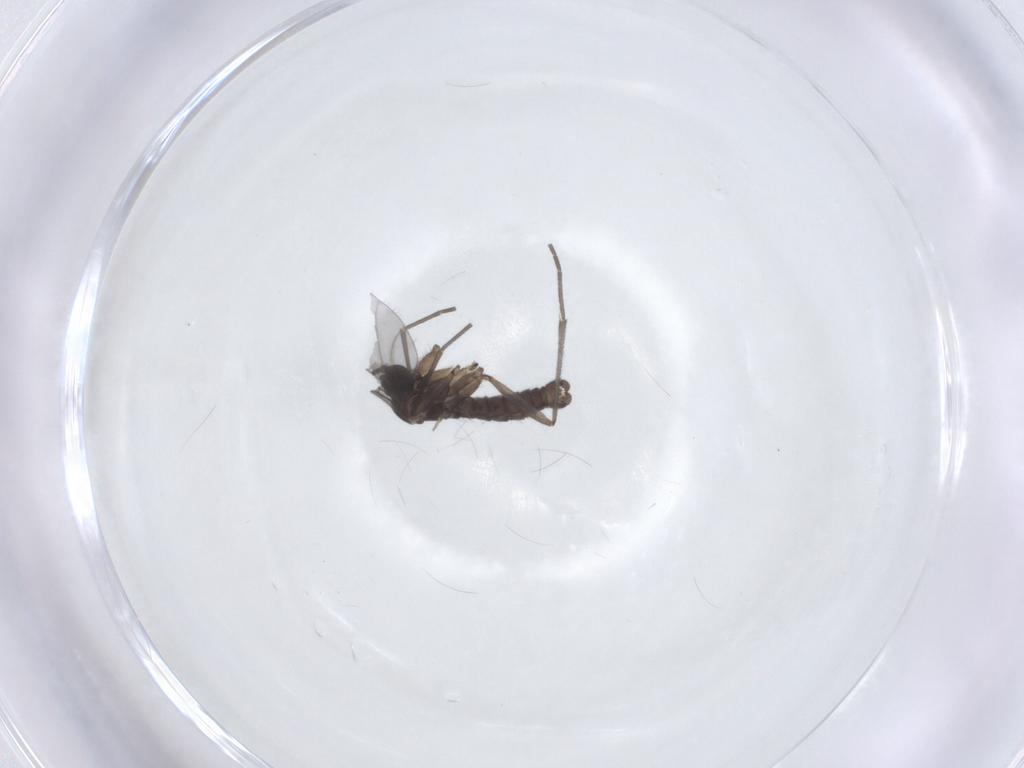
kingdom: Animalia
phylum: Arthropoda
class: Insecta
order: Diptera
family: Sciaridae
